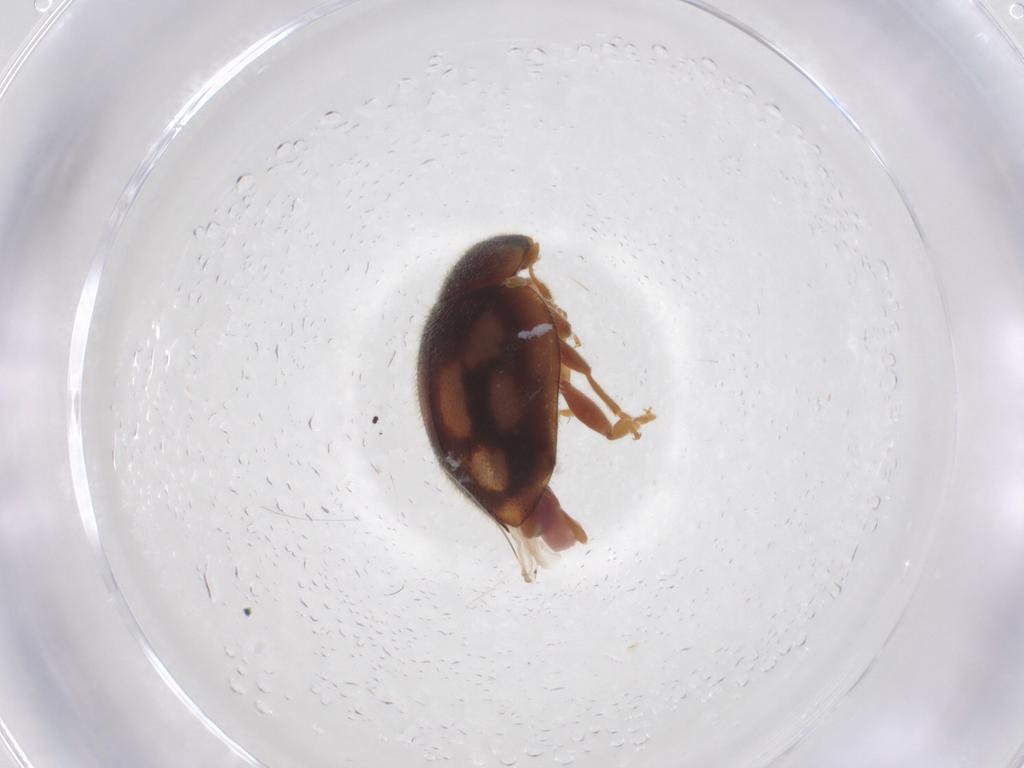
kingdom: Animalia
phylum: Arthropoda
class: Insecta
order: Coleoptera
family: Coccinellidae
